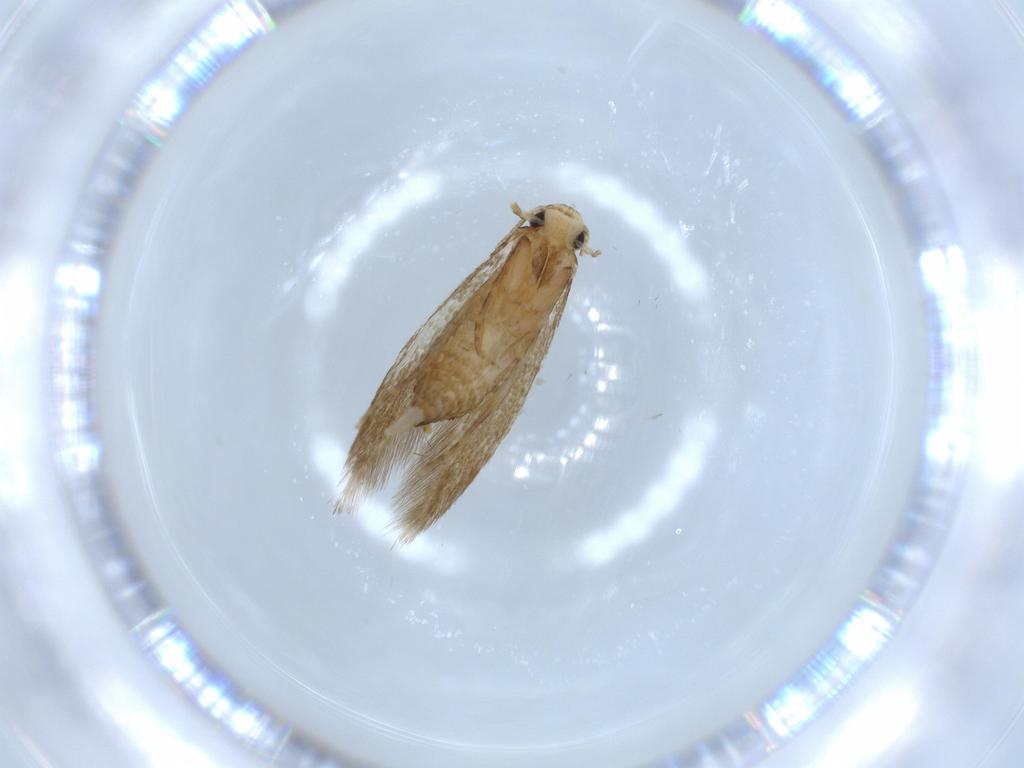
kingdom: Animalia
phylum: Arthropoda
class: Insecta
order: Lepidoptera
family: Tineidae
